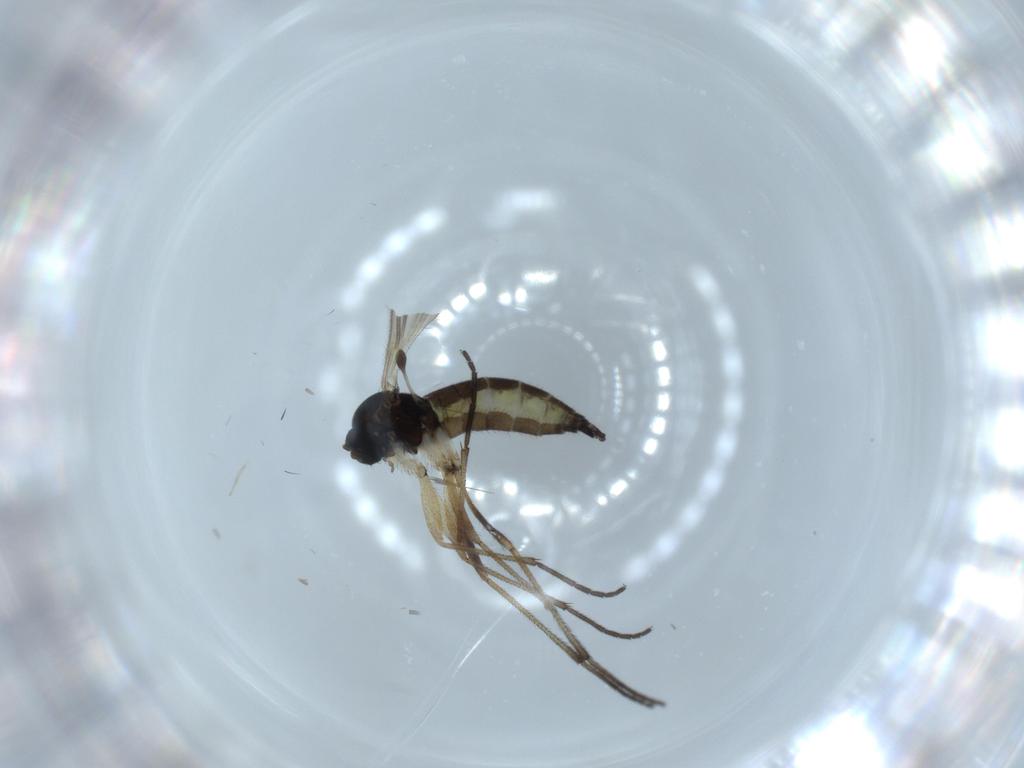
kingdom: Animalia
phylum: Arthropoda
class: Insecta
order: Diptera
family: Sciaridae
